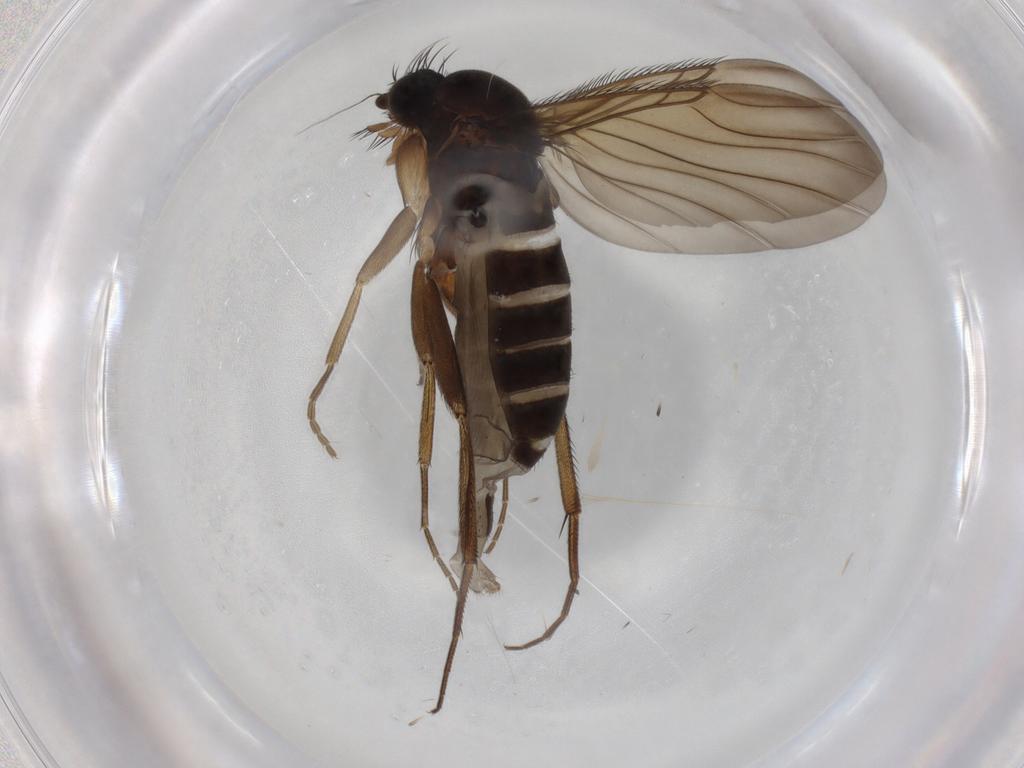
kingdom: Animalia
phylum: Arthropoda
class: Insecta
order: Diptera
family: Phoridae
